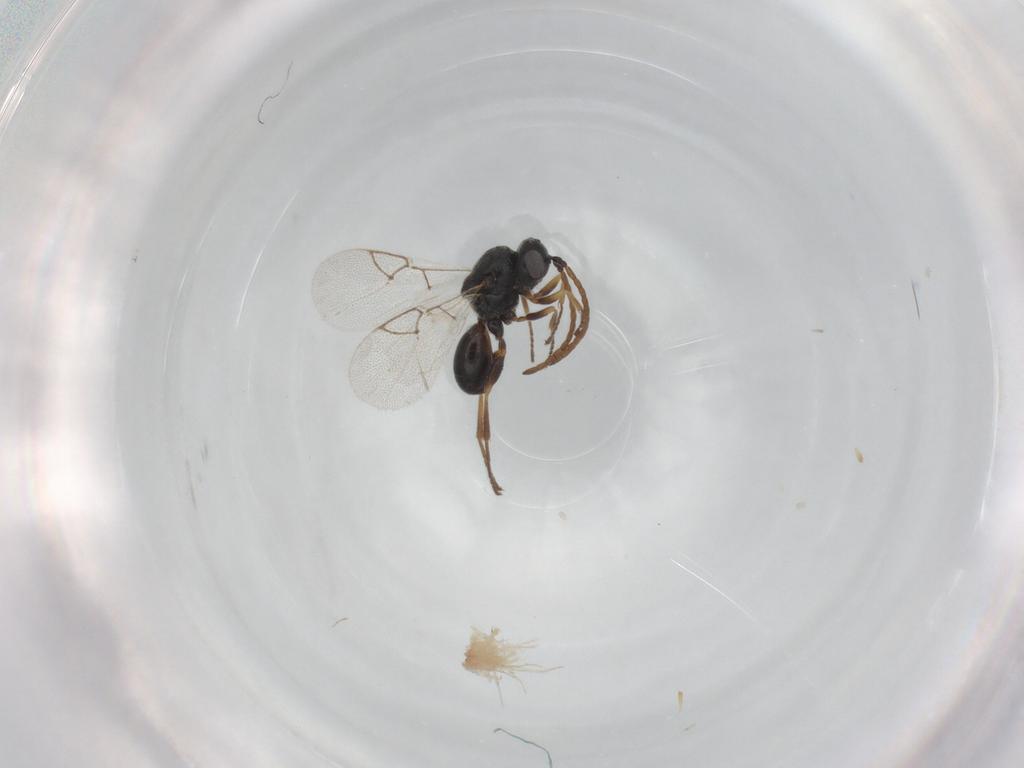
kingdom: Animalia
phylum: Arthropoda
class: Insecta
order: Hymenoptera
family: Figitidae
